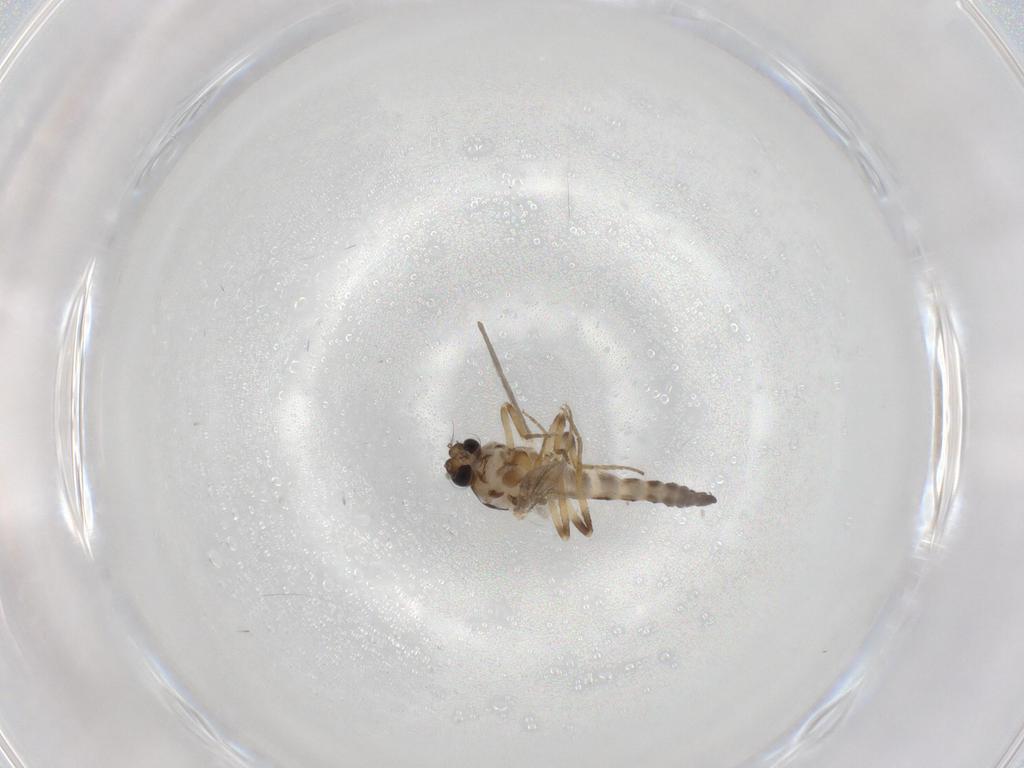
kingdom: Animalia
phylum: Arthropoda
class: Insecta
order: Diptera
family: Ceratopogonidae
